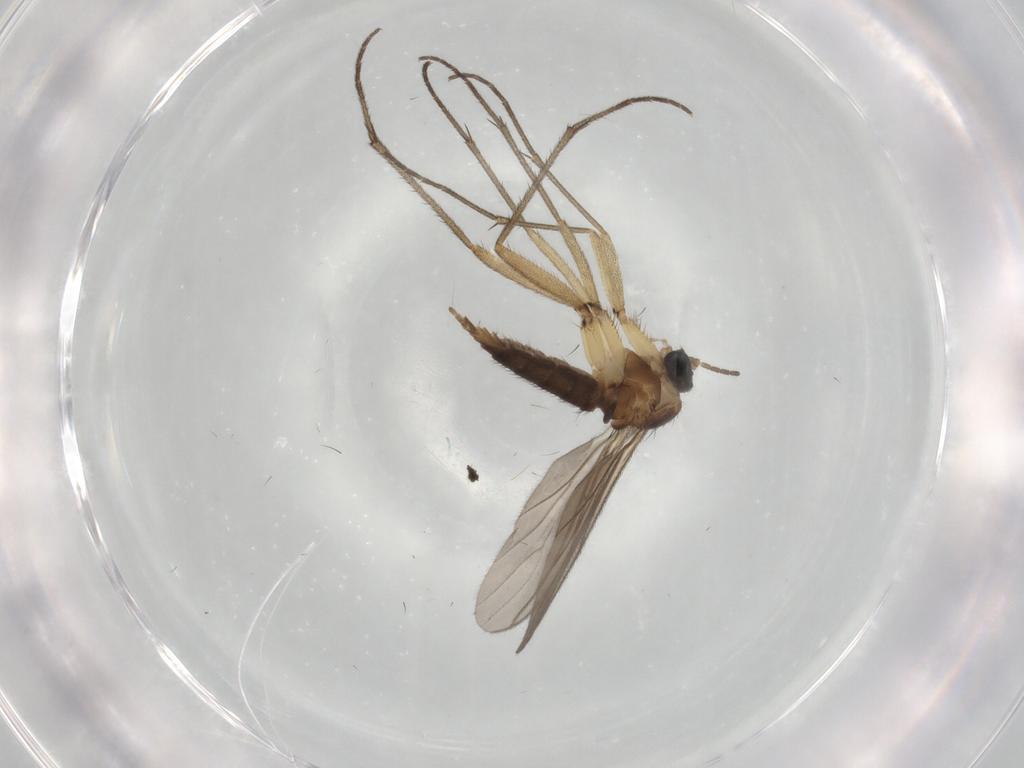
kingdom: Animalia
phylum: Arthropoda
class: Insecta
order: Diptera
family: Sciaridae
